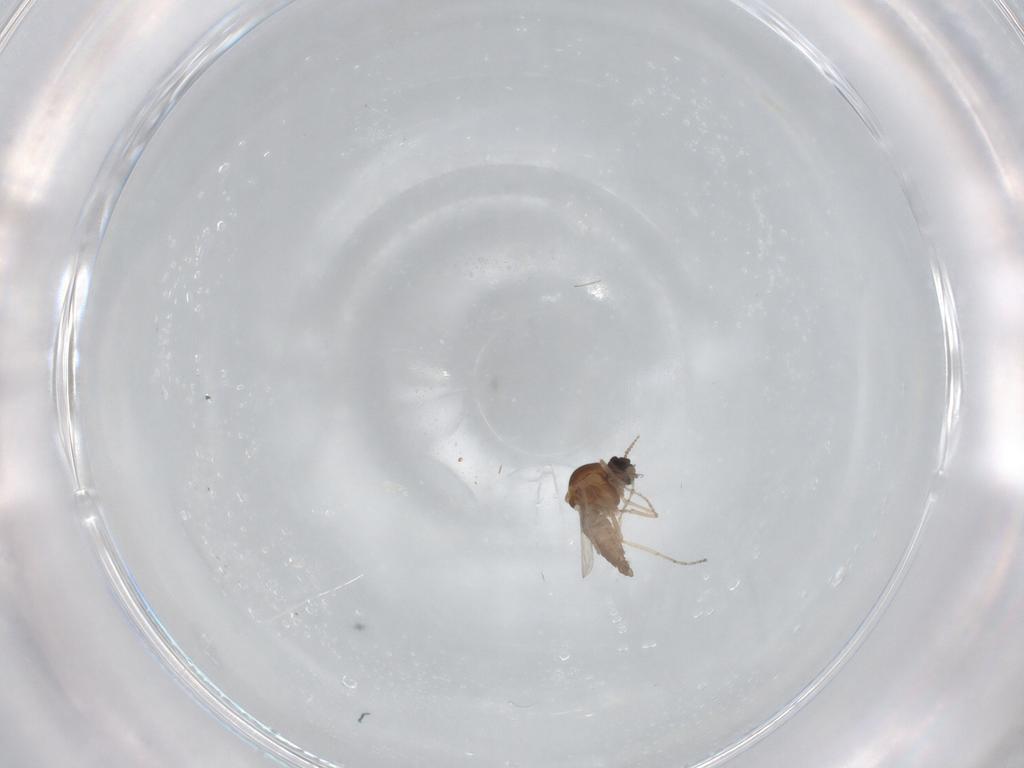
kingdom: Animalia
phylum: Arthropoda
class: Insecta
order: Diptera
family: Ceratopogonidae
